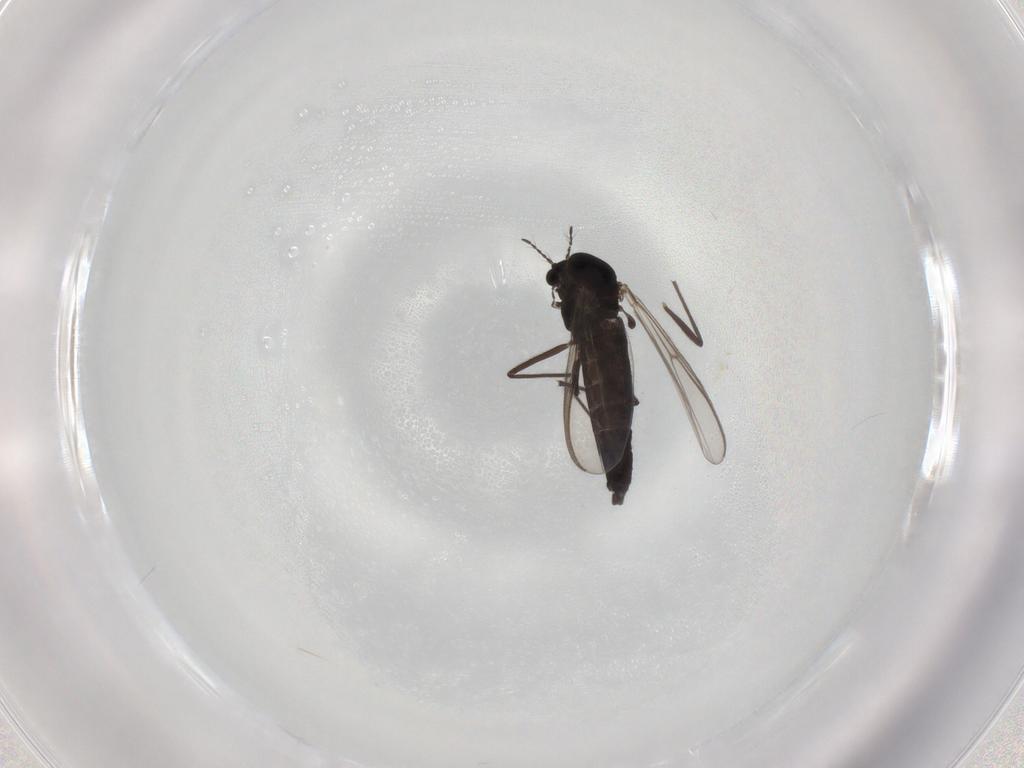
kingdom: Animalia
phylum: Arthropoda
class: Insecta
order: Diptera
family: Chironomidae
